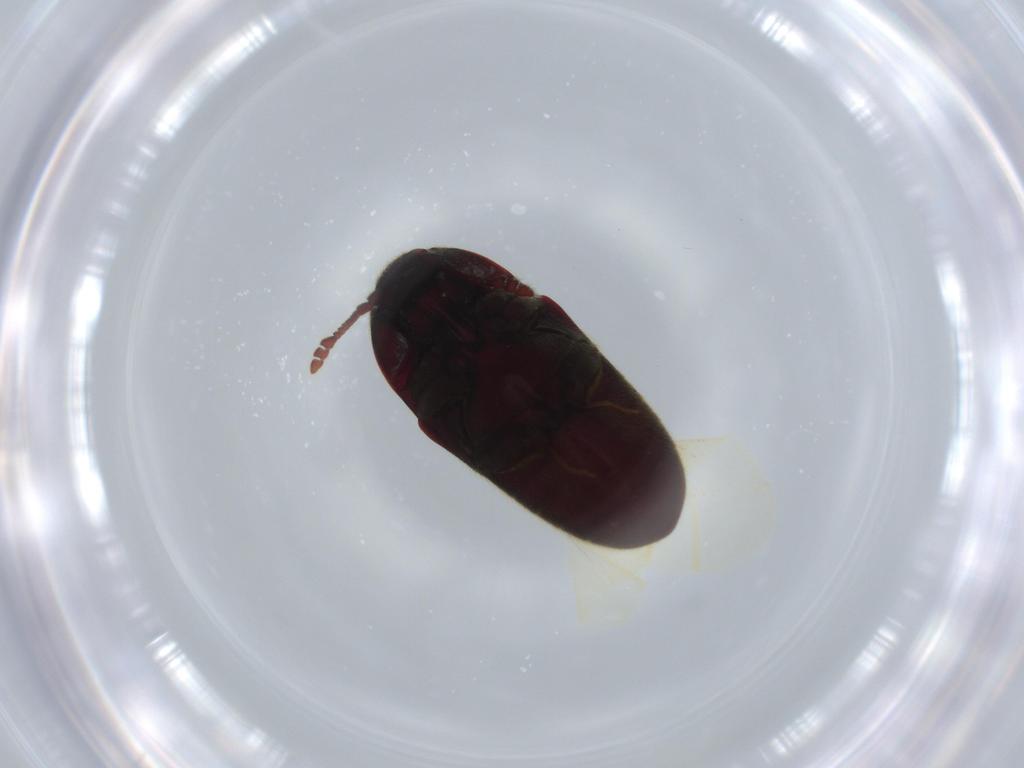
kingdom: Animalia
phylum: Arthropoda
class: Insecta
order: Coleoptera
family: Throscidae
